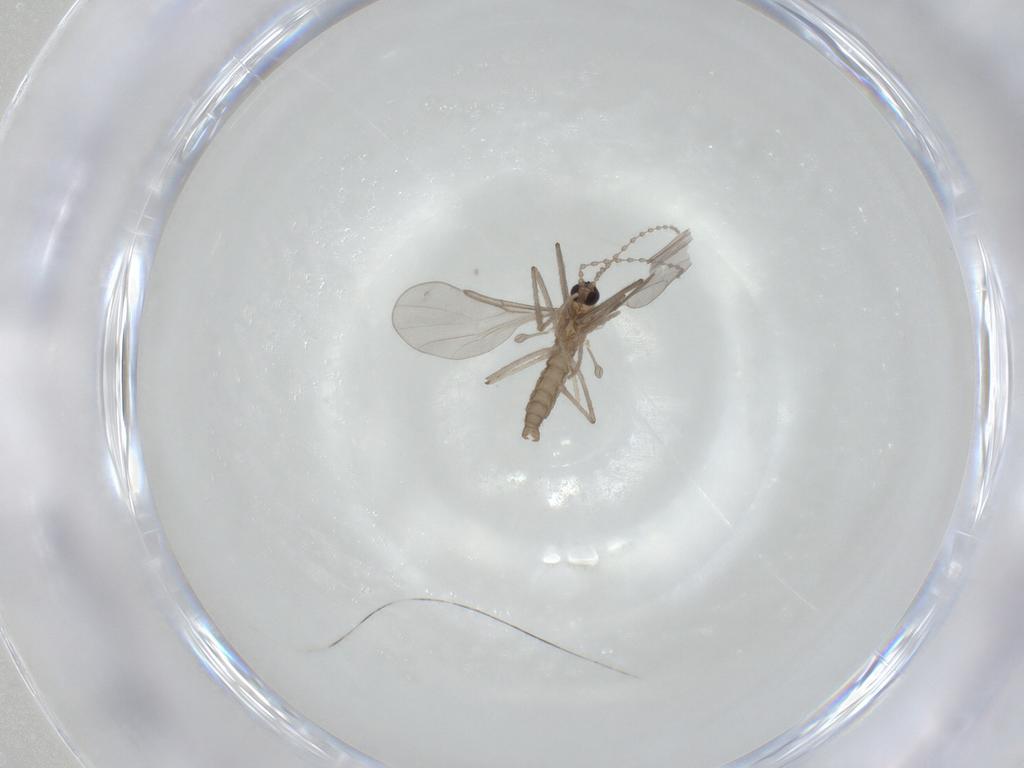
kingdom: Animalia
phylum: Arthropoda
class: Insecta
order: Diptera
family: Cecidomyiidae
